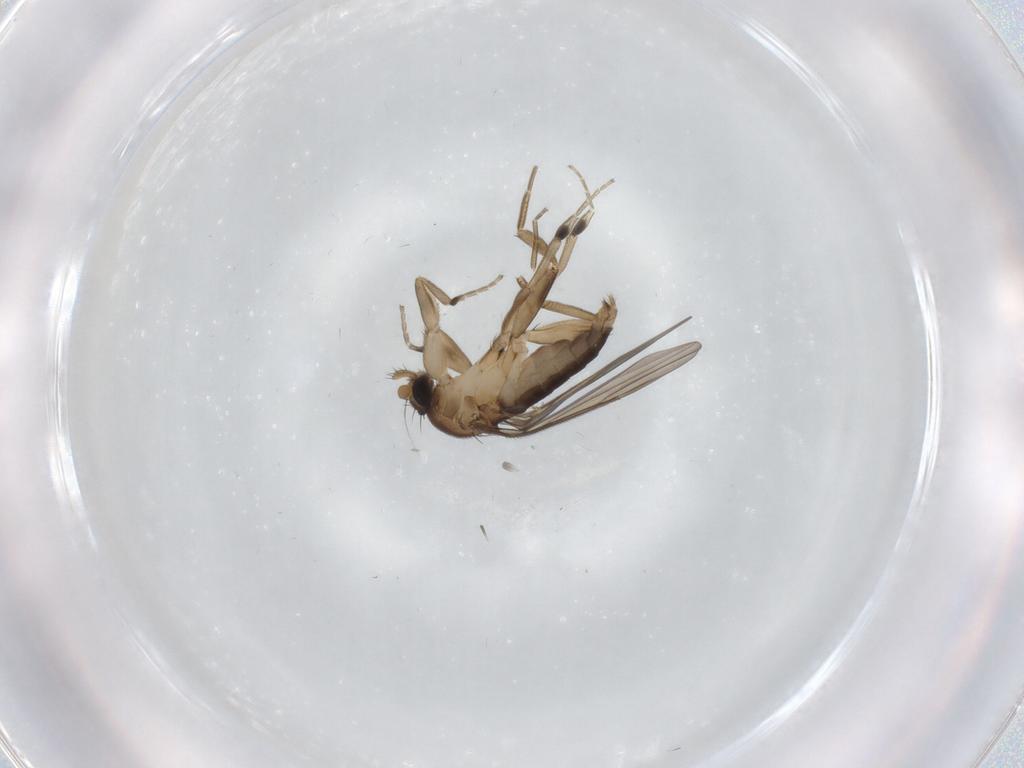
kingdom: Animalia
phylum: Arthropoda
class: Insecta
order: Diptera
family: Phoridae
